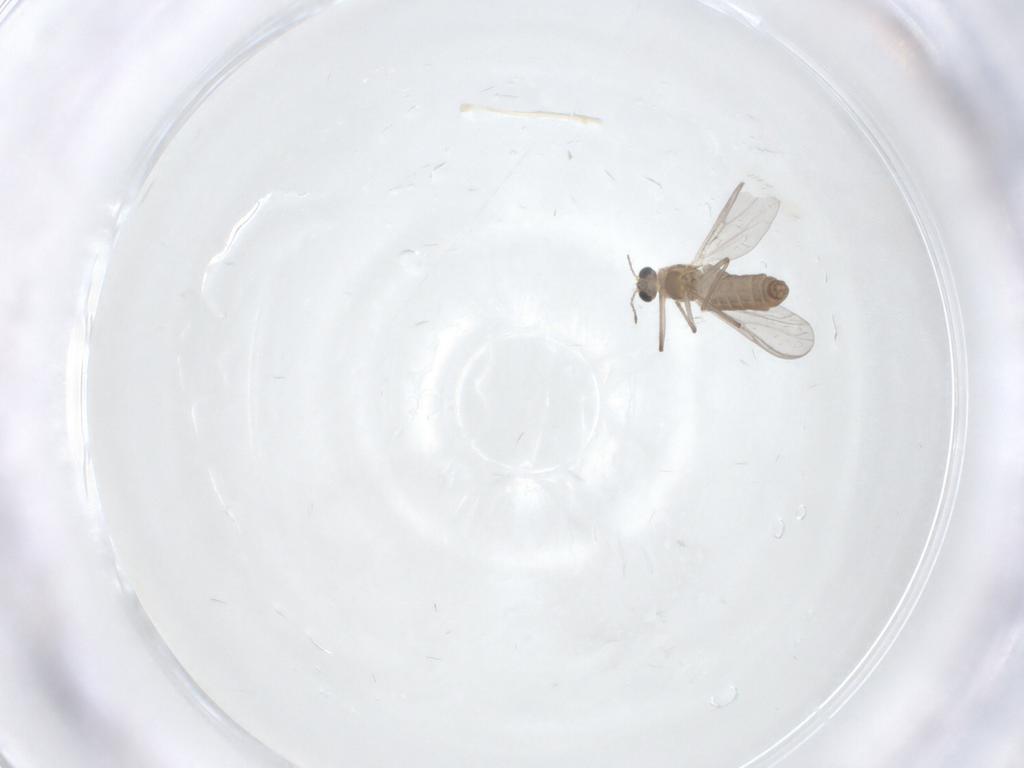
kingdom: Animalia
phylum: Arthropoda
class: Insecta
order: Diptera
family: Chironomidae
